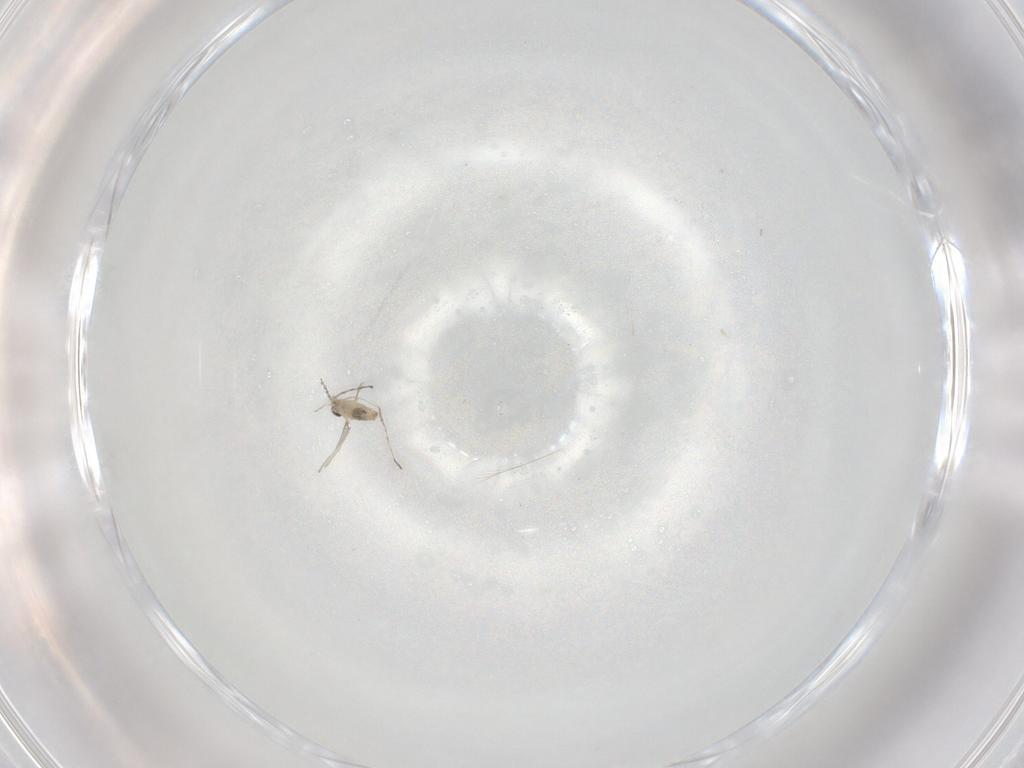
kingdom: Animalia
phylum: Arthropoda
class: Insecta
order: Diptera
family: Cecidomyiidae
